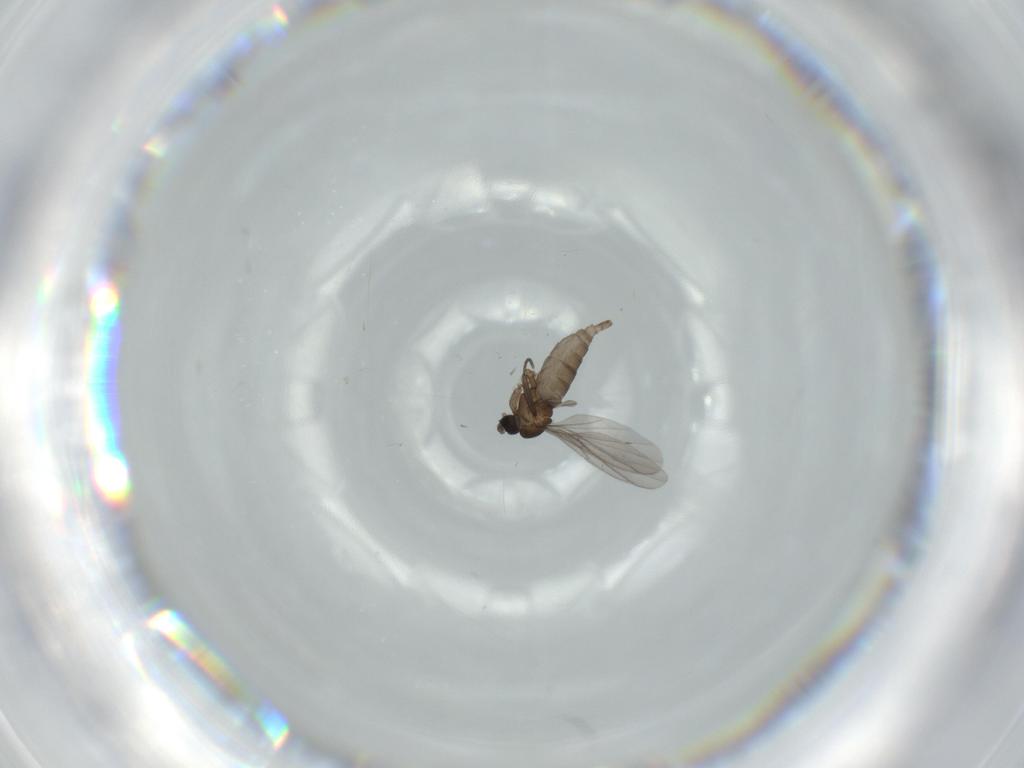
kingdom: Animalia
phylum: Arthropoda
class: Insecta
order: Diptera
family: Sciaridae
